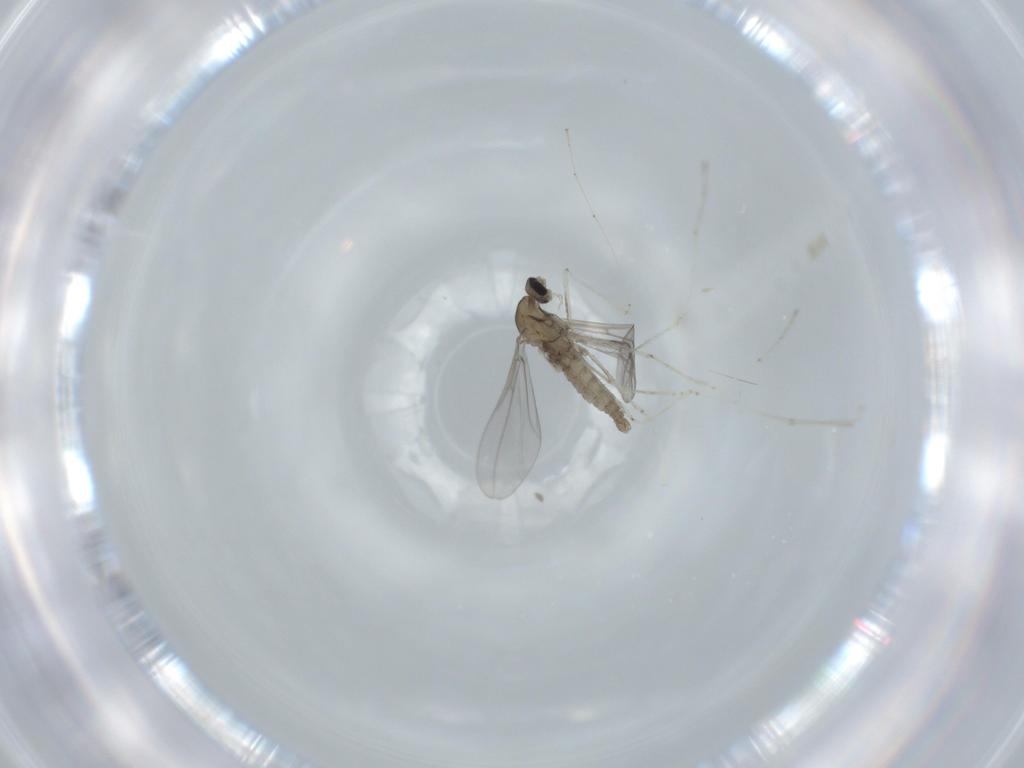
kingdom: Animalia
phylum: Arthropoda
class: Insecta
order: Diptera
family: Cecidomyiidae
